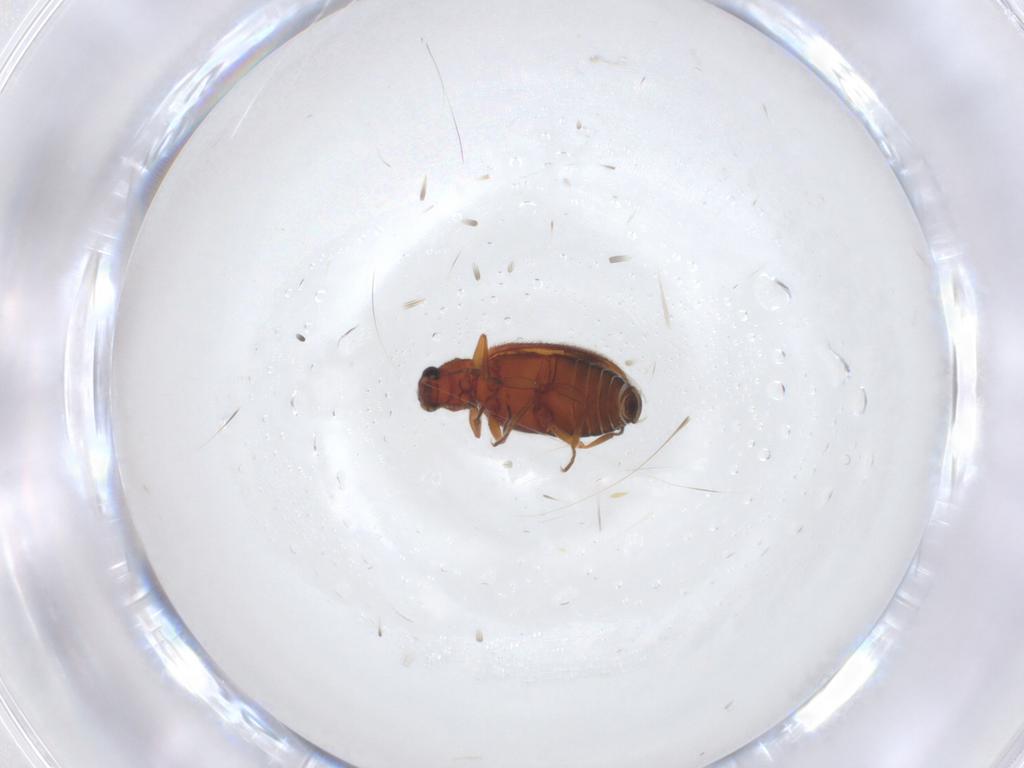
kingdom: Animalia
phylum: Arthropoda
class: Insecta
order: Coleoptera
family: Latridiidae
